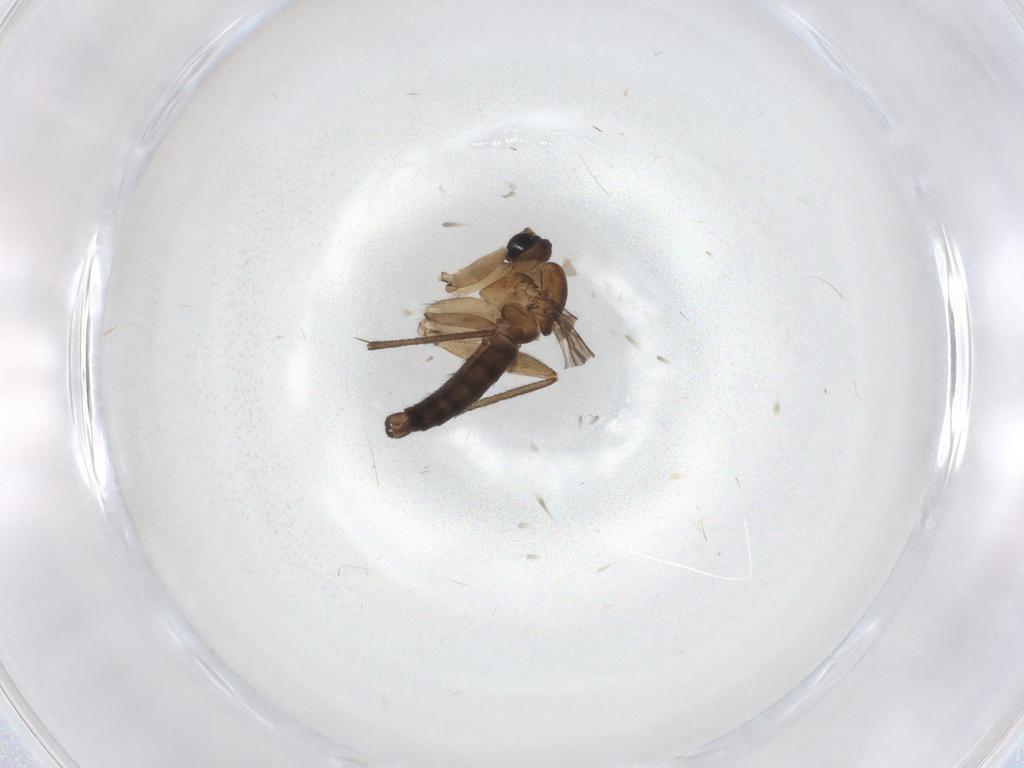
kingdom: Animalia
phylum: Arthropoda
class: Insecta
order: Diptera
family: Sciaridae
